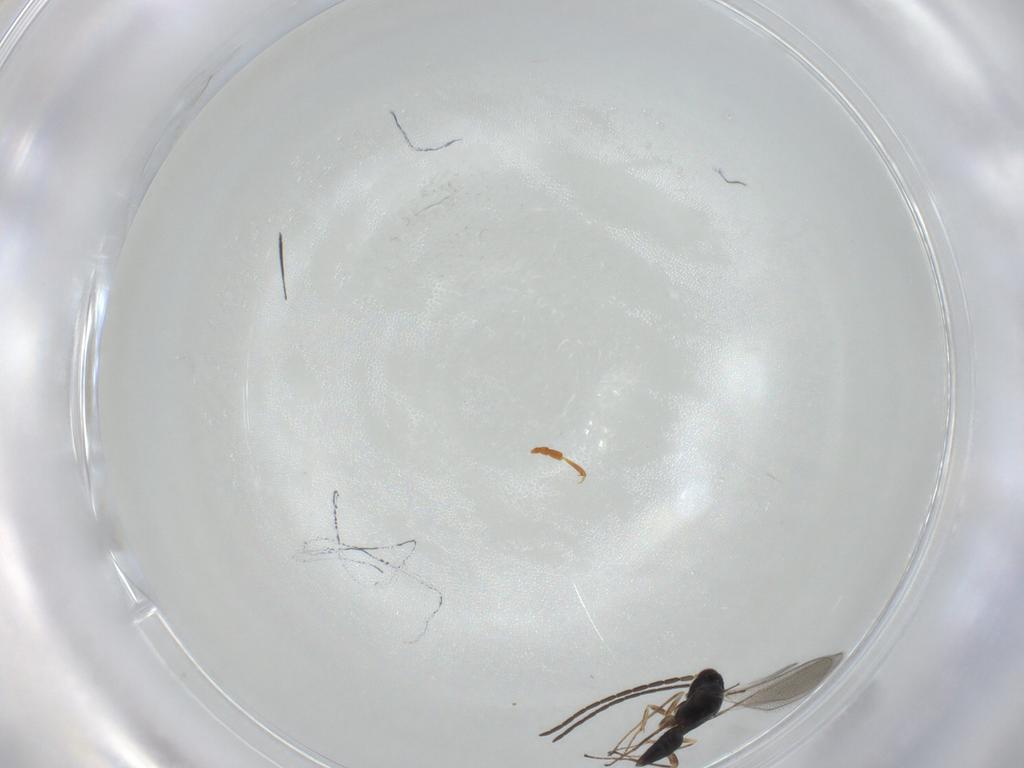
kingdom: Animalia
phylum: Arthropoda
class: Insecta
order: Hymenoptera
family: Mymaridae
